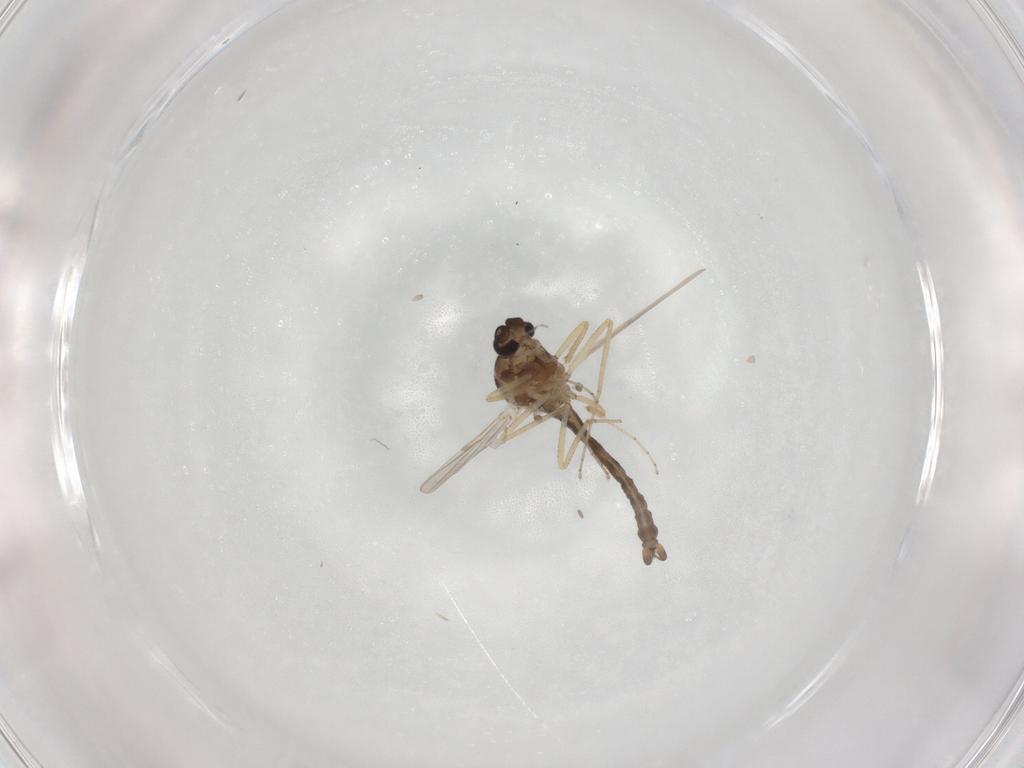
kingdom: Animalia
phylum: Arthropoda
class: Insecta
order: Diptera
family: Ceratopogonidae
